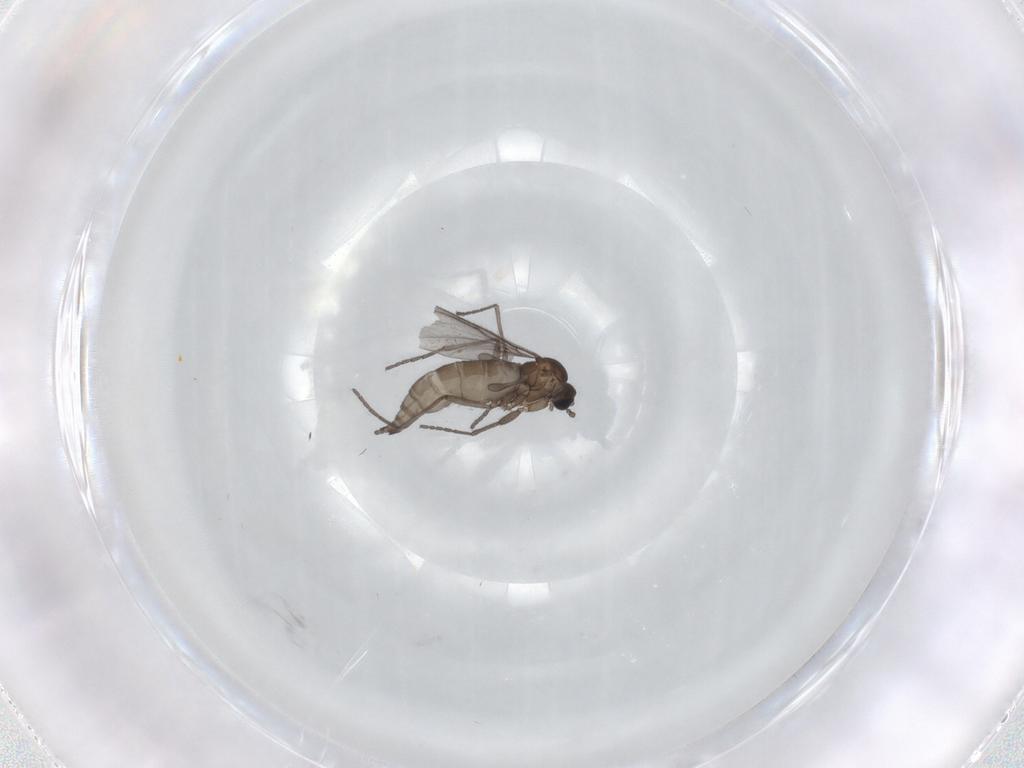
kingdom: Animalia
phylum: Arthropoda
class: Insecta
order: Diptera
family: Sciaridae
